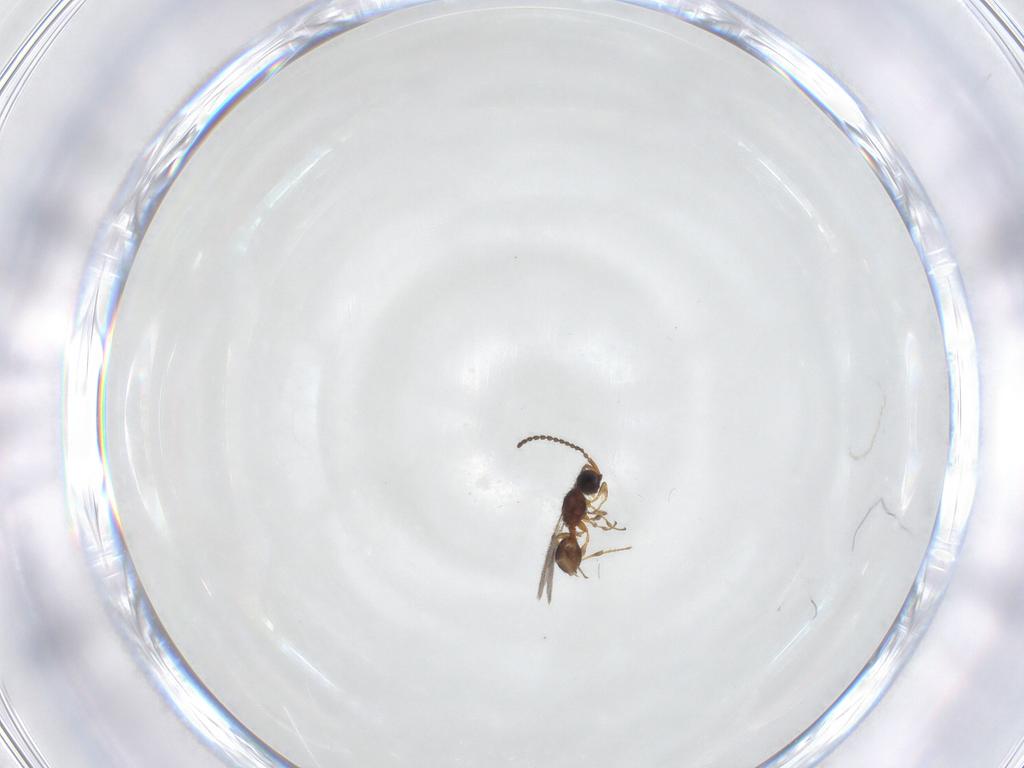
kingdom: Animalia
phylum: Arthropoda
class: Insecta
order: Hymenoptera
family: Diapriidae
